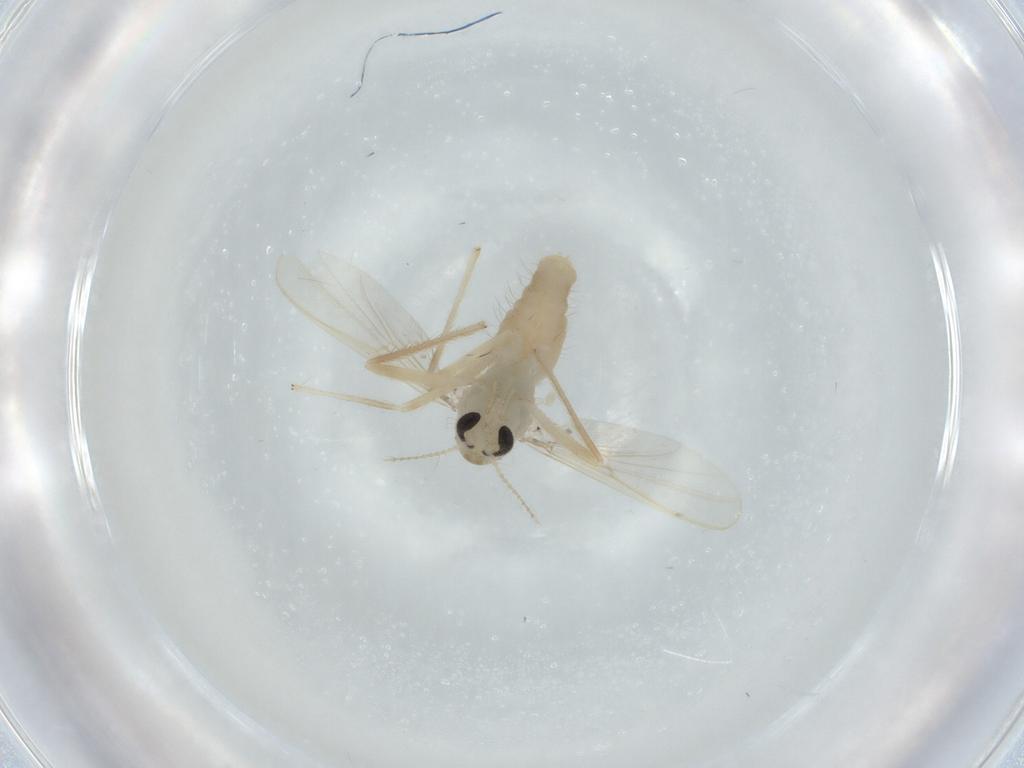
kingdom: Animalia
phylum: Arthropoda
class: Insecta
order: Diptera
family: Chironomidae
